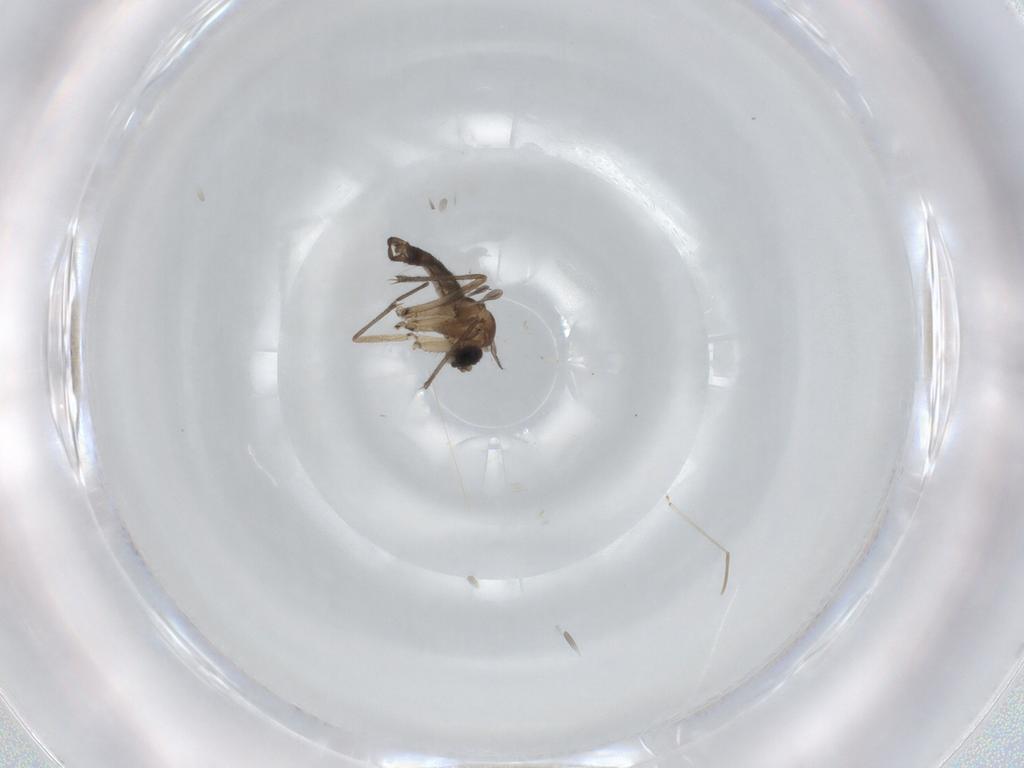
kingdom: Animalia
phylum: Arthropoda
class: Insecta
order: Diptera
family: Sciaridae
